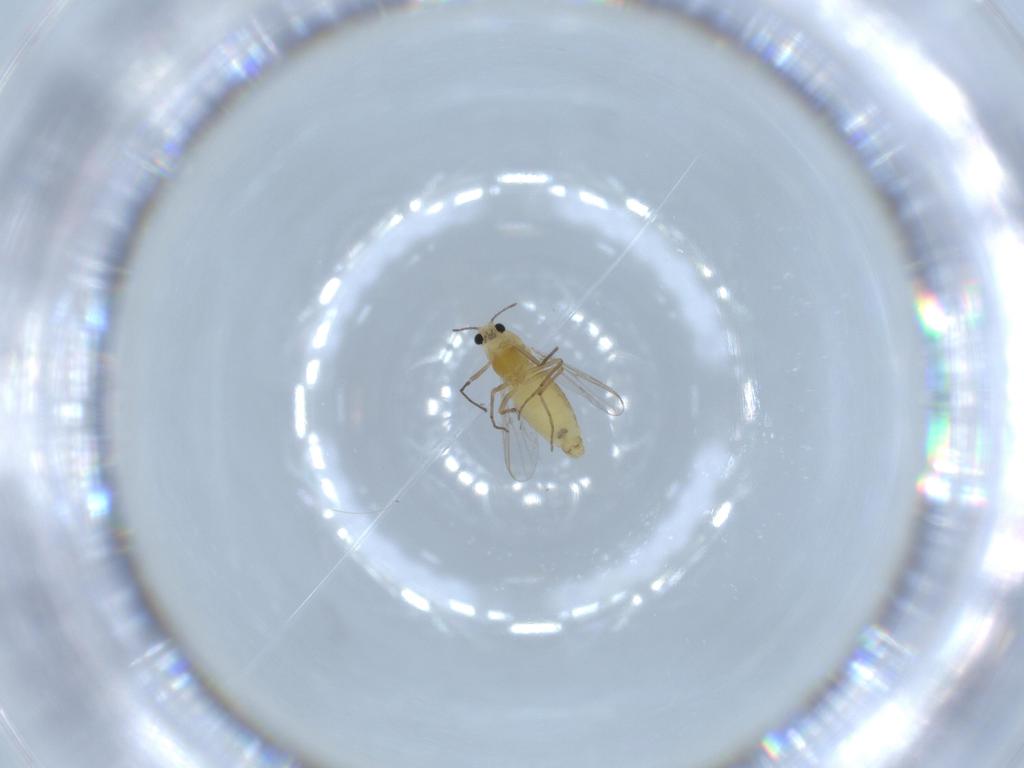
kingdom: Animalia
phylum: Arthropoda
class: Insecta
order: Diptera
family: Chironomidae
